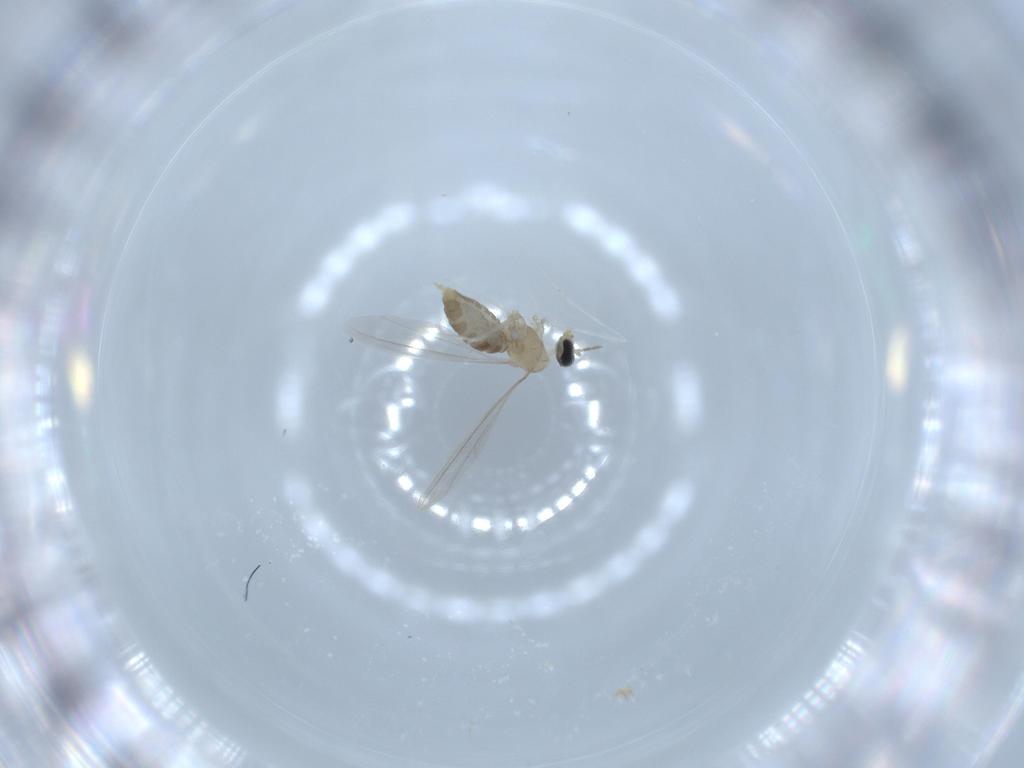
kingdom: Animalia
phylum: Arthropoda
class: Insecta
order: Diptera
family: Cecidomyiidae
